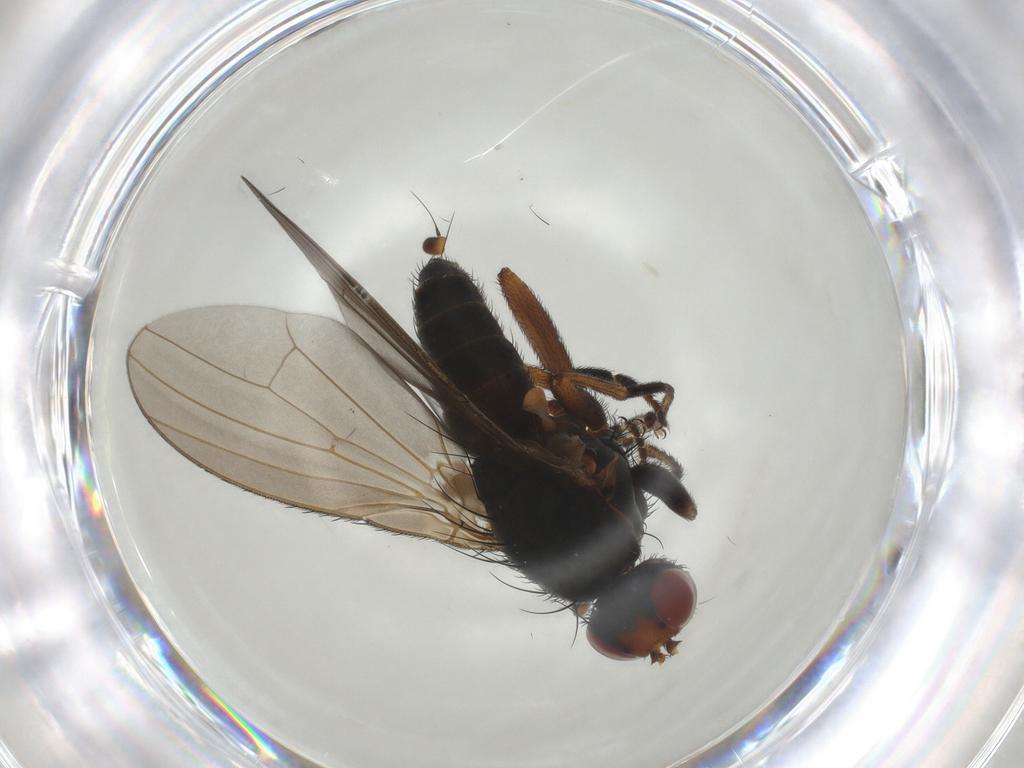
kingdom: Animalia
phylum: Arthropoda
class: Insecta
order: Diptera
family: Heleomyzidae
